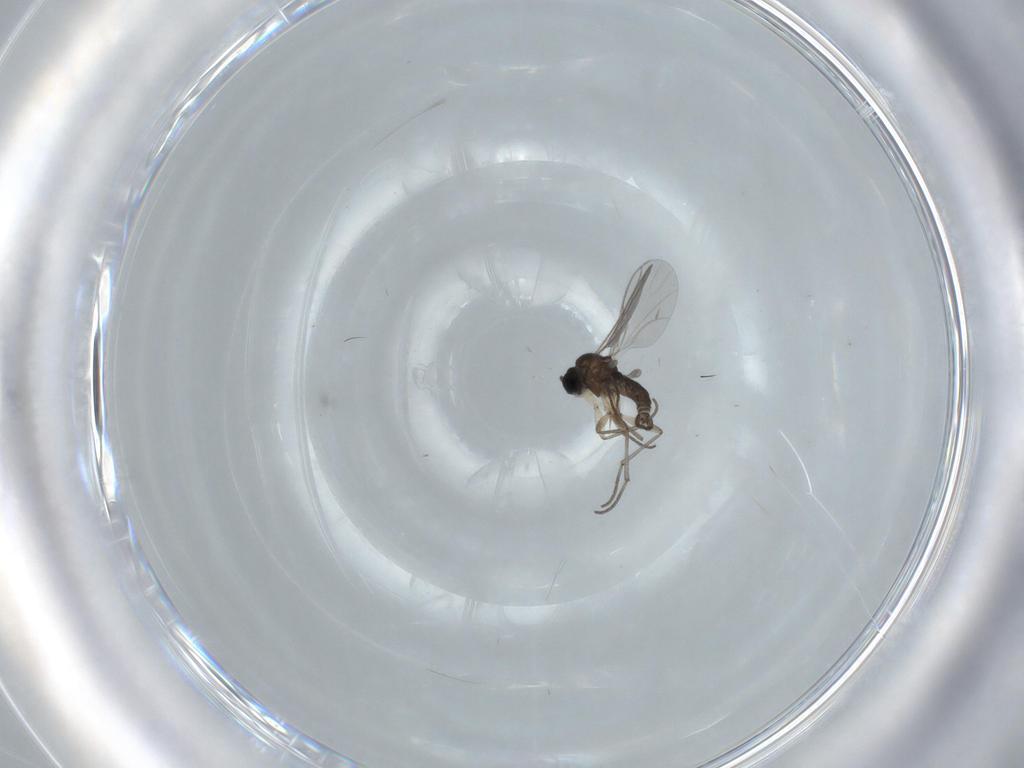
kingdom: Animalia
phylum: Arthropoda
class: Insecta
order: Diptera
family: Sciaridae
